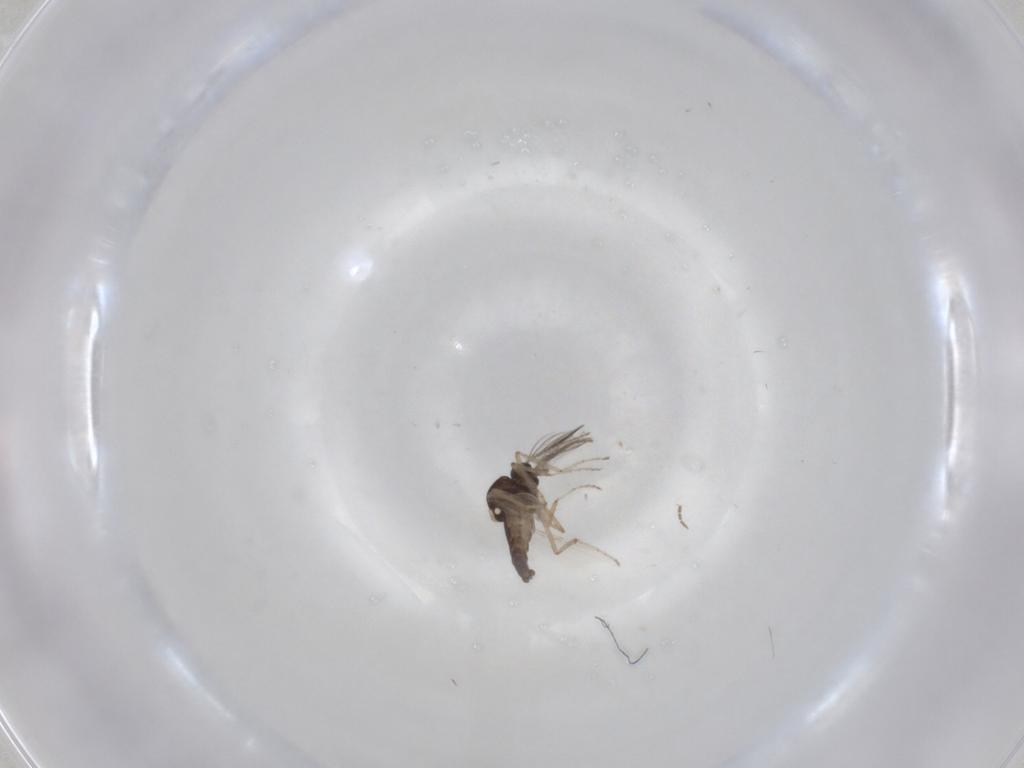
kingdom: Animalia
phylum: Arthropoda
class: Insecta
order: Diptera
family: Ceratopogonidae
